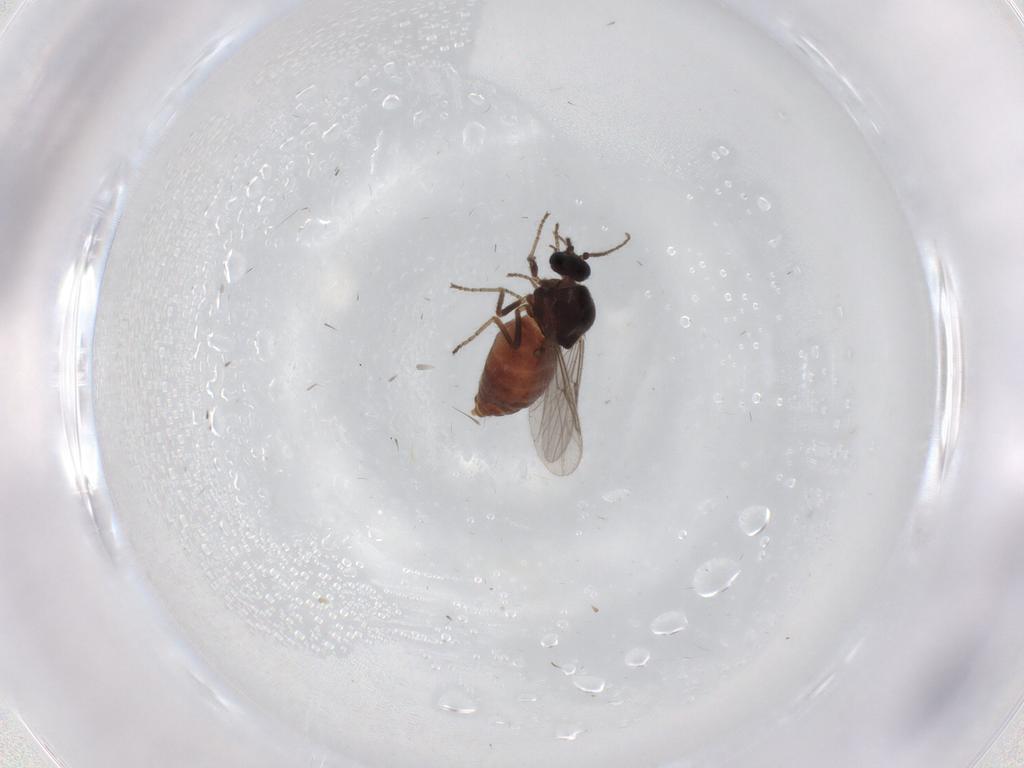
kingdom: Animalia
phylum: Arthropoda
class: Insecta
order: Diptera
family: Ceratopogonidae
